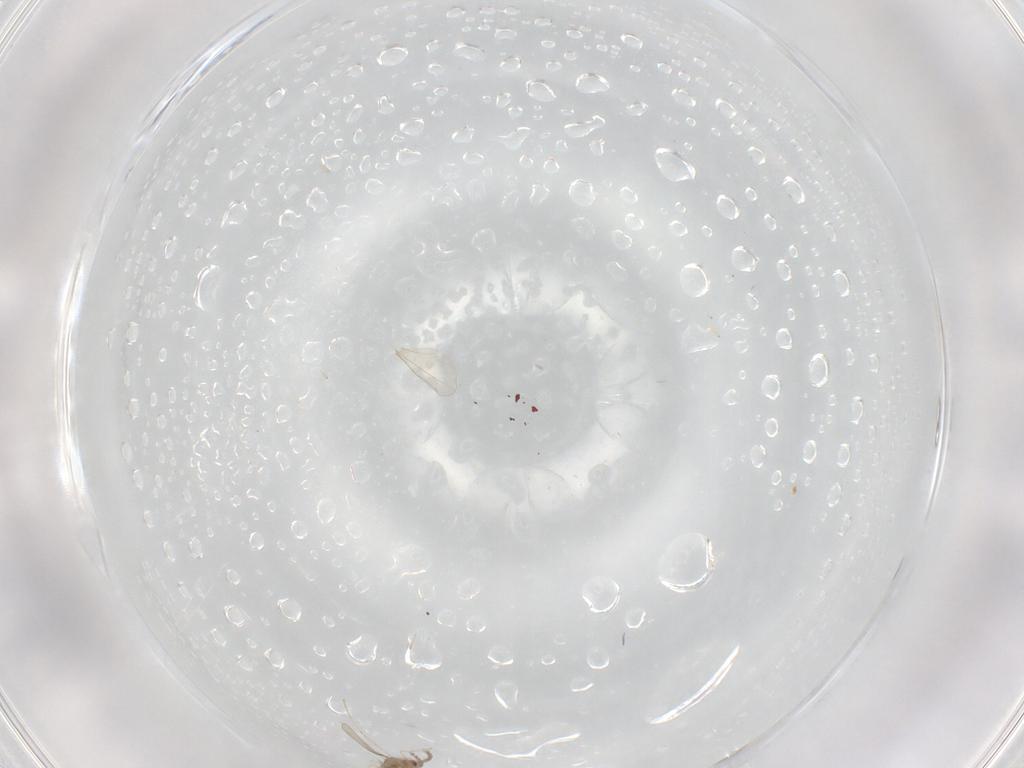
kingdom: Animalia
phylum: Arthropoda
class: Insecta
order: Diptera
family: Cecidomyiidae
